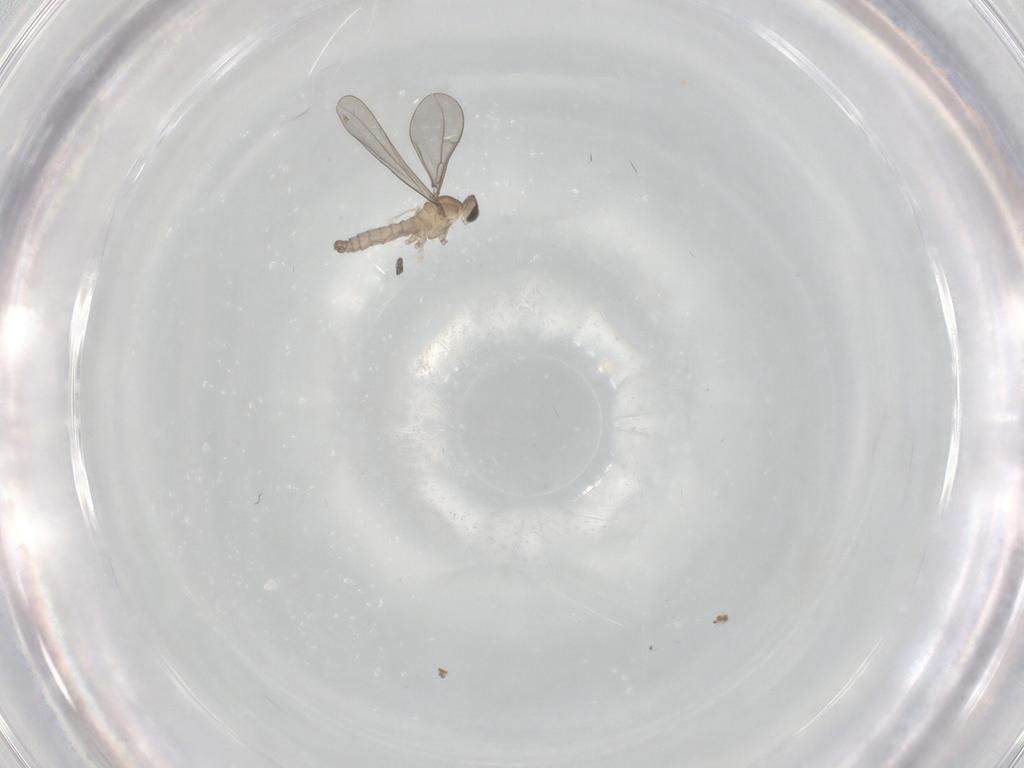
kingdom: Animalia
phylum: Arthropoda
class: Insecta
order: Diptera
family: Cecidomyiidae
